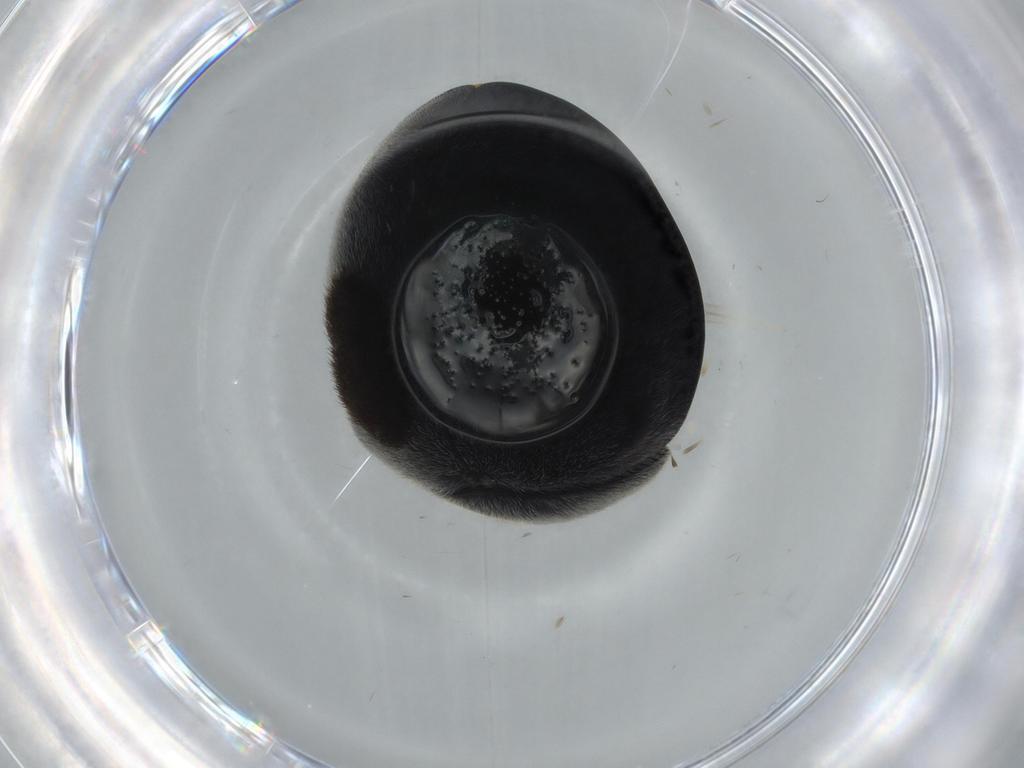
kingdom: Animalia
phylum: Arthropoda
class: Insecta
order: Coleoptera
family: Coccinellidae
